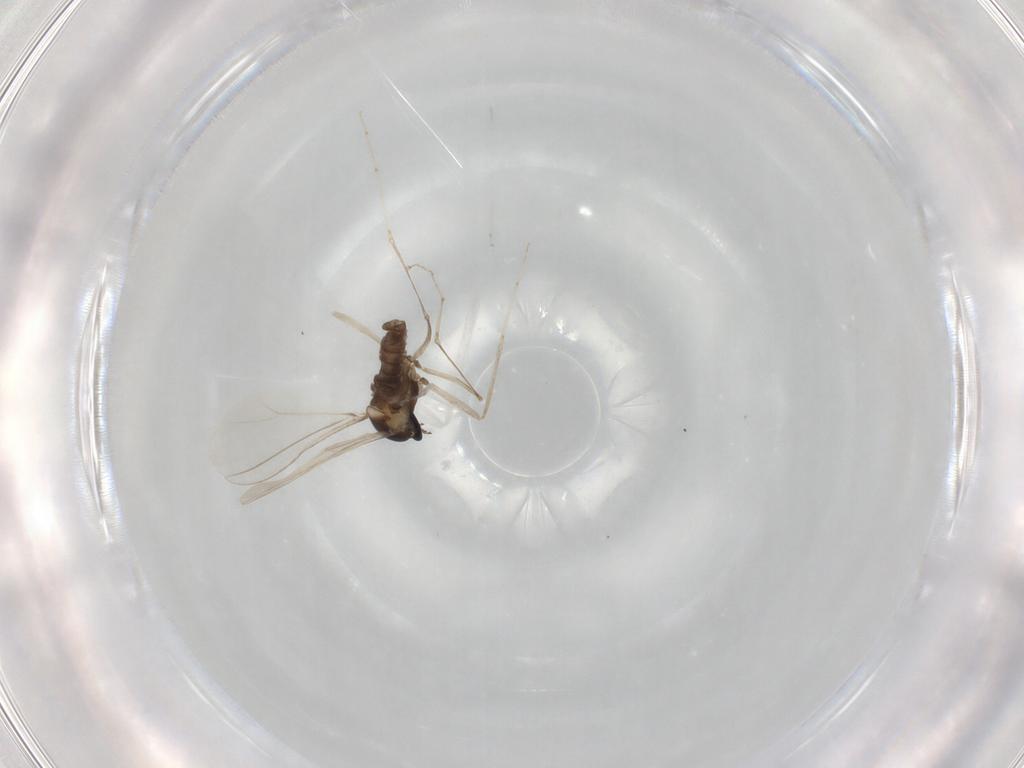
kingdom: Animalia
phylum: Arthropoda
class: Insecta
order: Diptera
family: Cecidomyiidae
